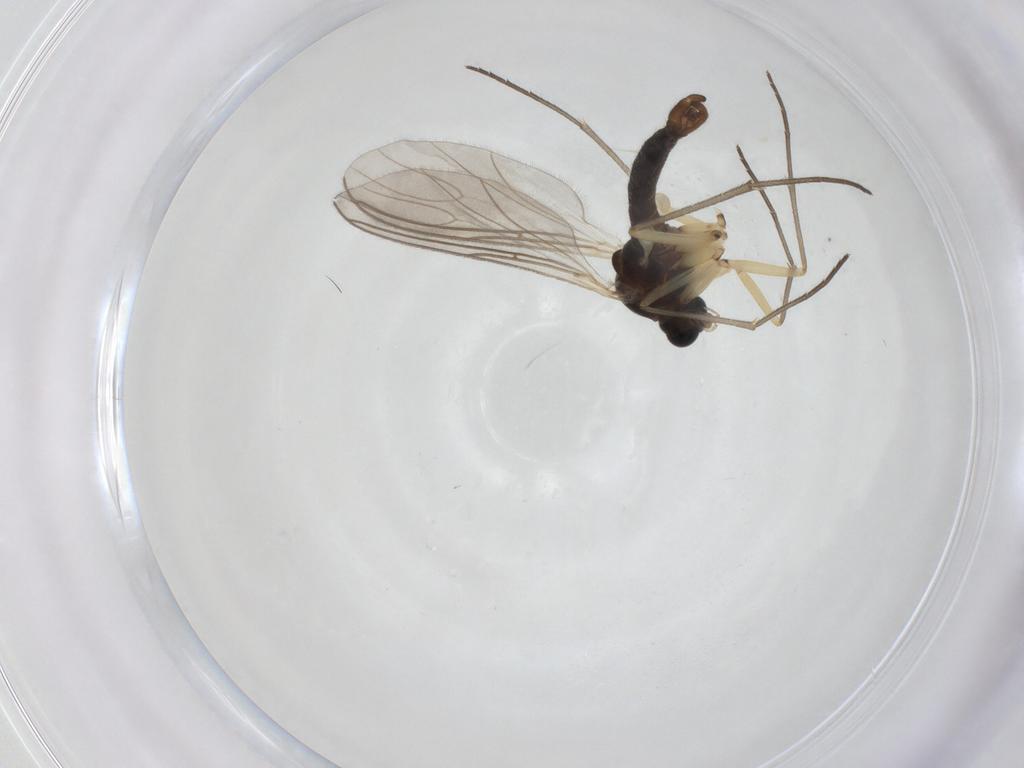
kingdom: Animalia
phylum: Arthropoda
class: Insecta
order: Diptera
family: Sciaridae
